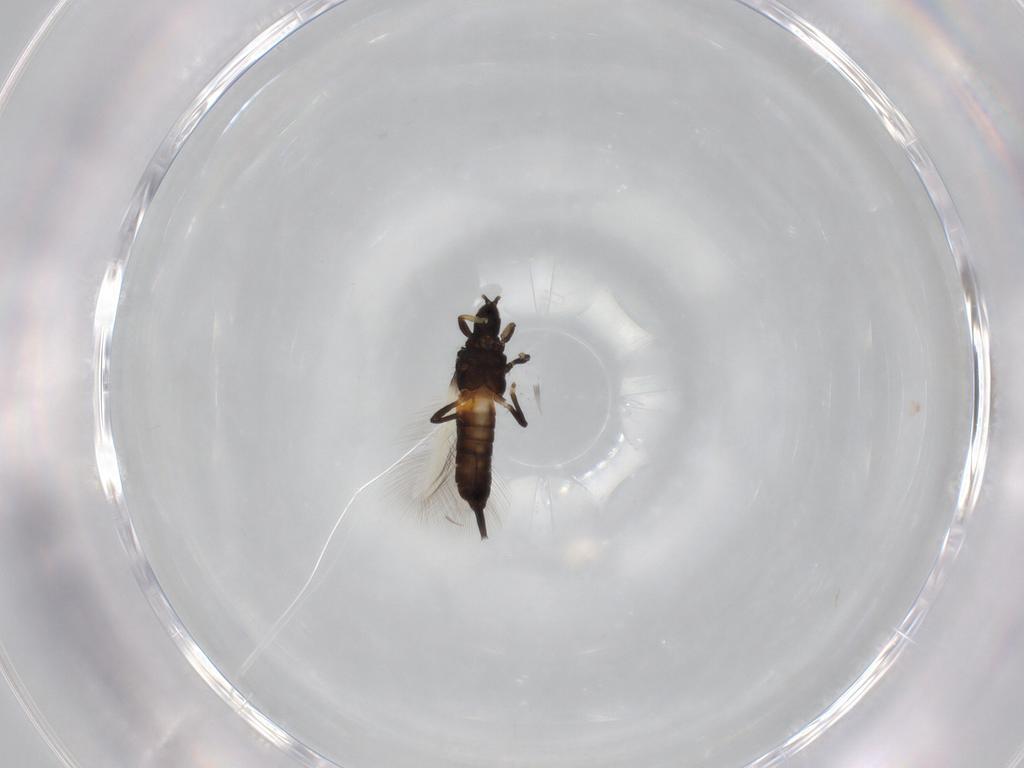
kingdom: Animalia
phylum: Arthropoda
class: Insecta
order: Thysanoptera
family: Phlaeothripidae
